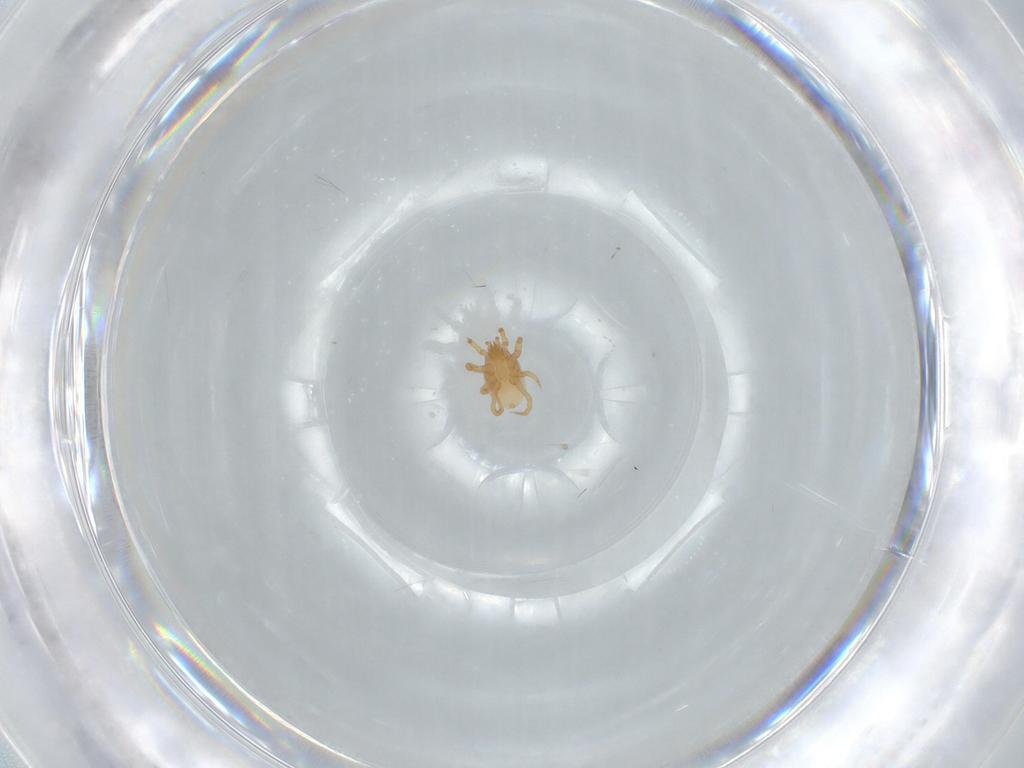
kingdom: Animalia
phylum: Arthropoda
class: Arachnida
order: Mesostigmata
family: Parasitidae
